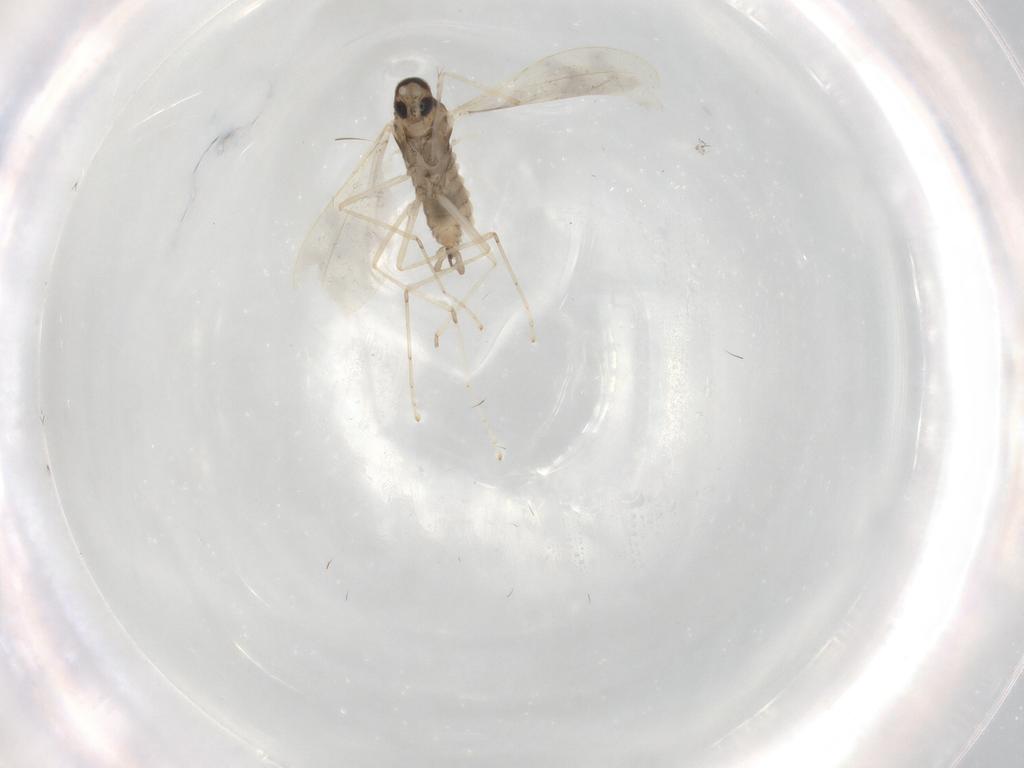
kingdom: Animalia
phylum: Arthropoda
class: Insecta
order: Diptera
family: Cecidomyiidae
